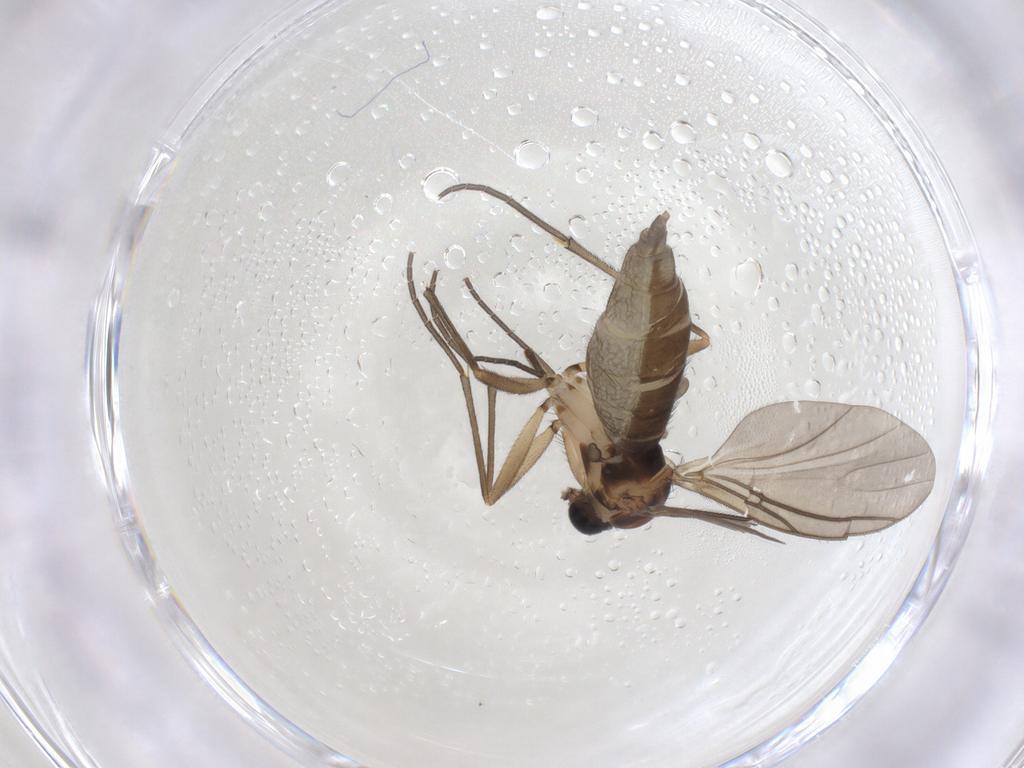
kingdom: Animalia
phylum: Arthropoda
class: Insecta
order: Diptera
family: Sciaridae
